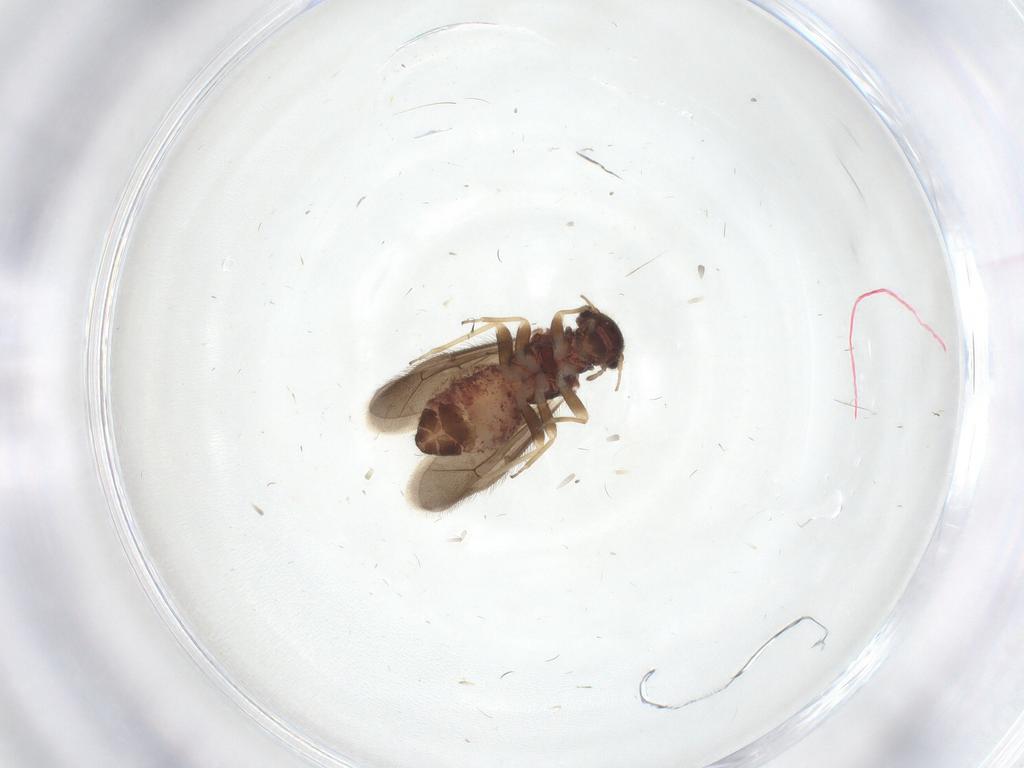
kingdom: Animalia
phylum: Arthropoda
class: Insecta
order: Psocodea
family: Archipsocidae
